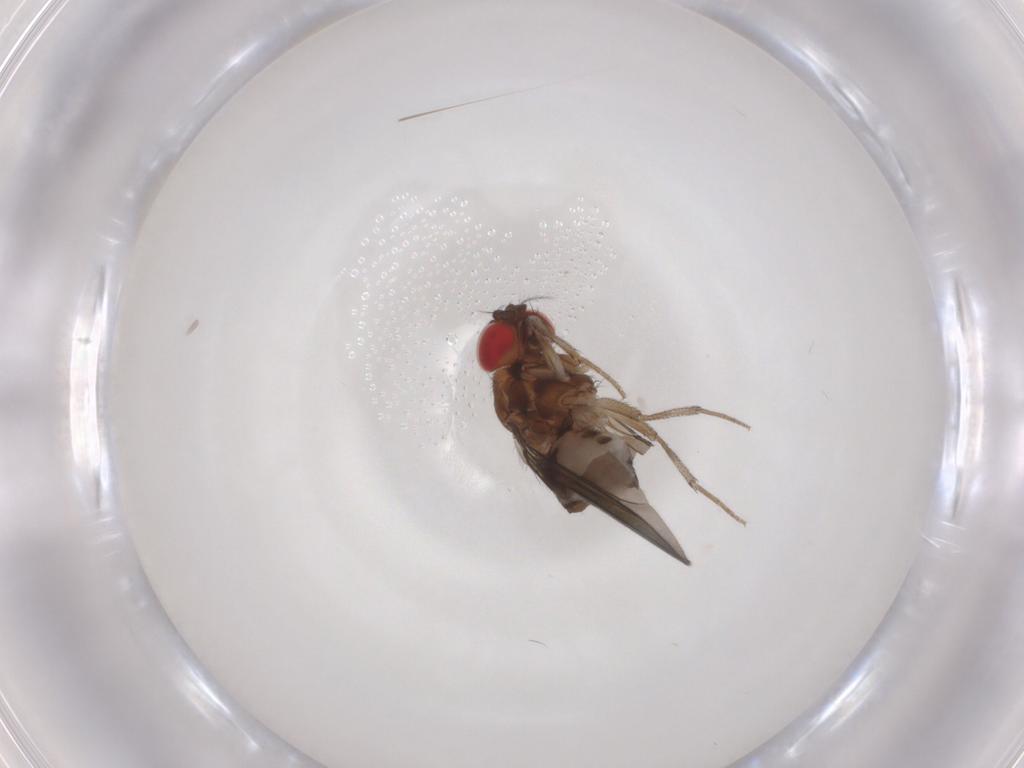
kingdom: Animalia
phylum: Arthropoda
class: Insecta
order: Diptera
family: Drosophilidae
